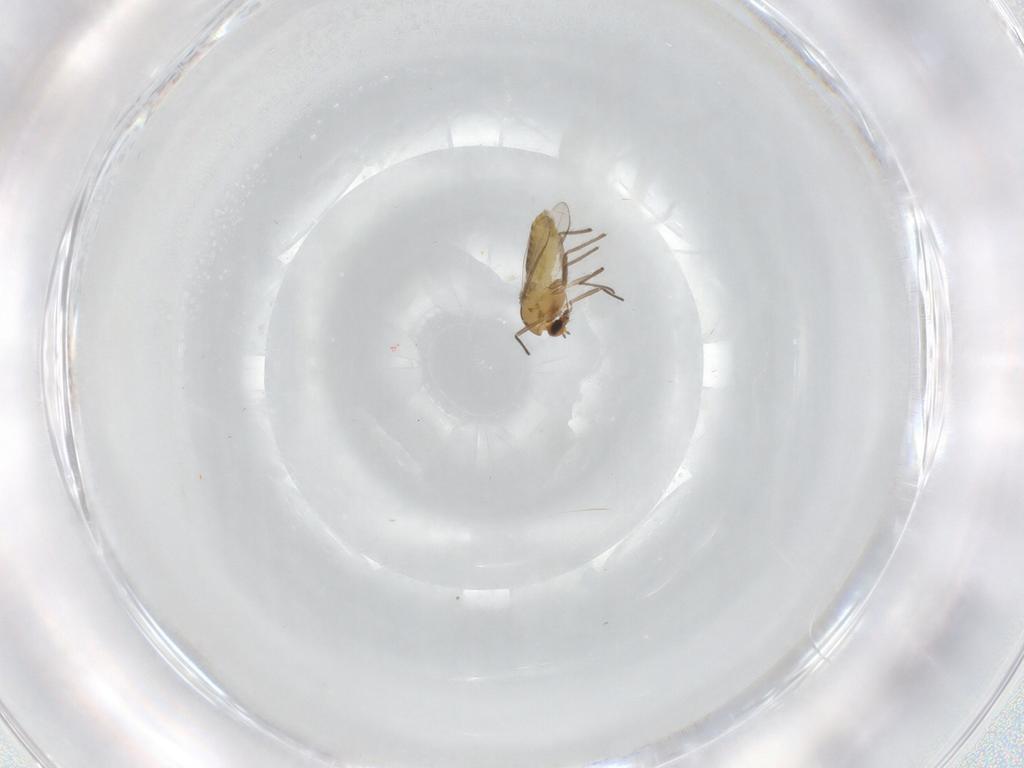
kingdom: Animalia
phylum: Arthropoda
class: Insecta
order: Diptera
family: Chironomidae
